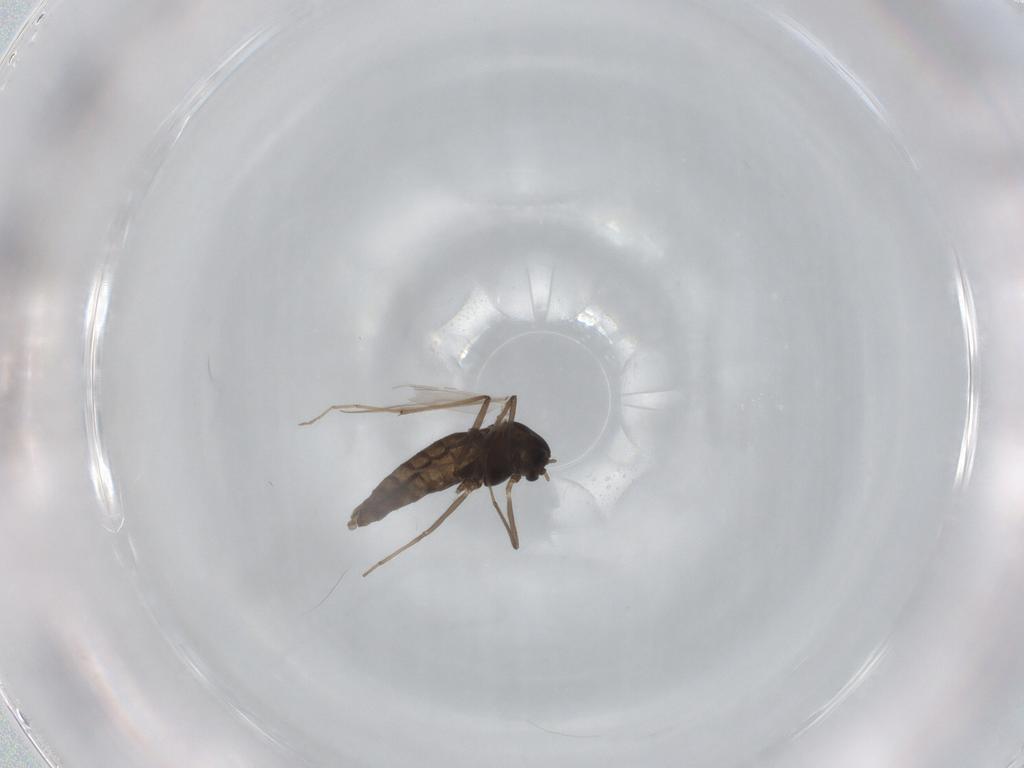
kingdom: Animalia
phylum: Arthropoda
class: Insecta
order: Diptera
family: Chironomidae
